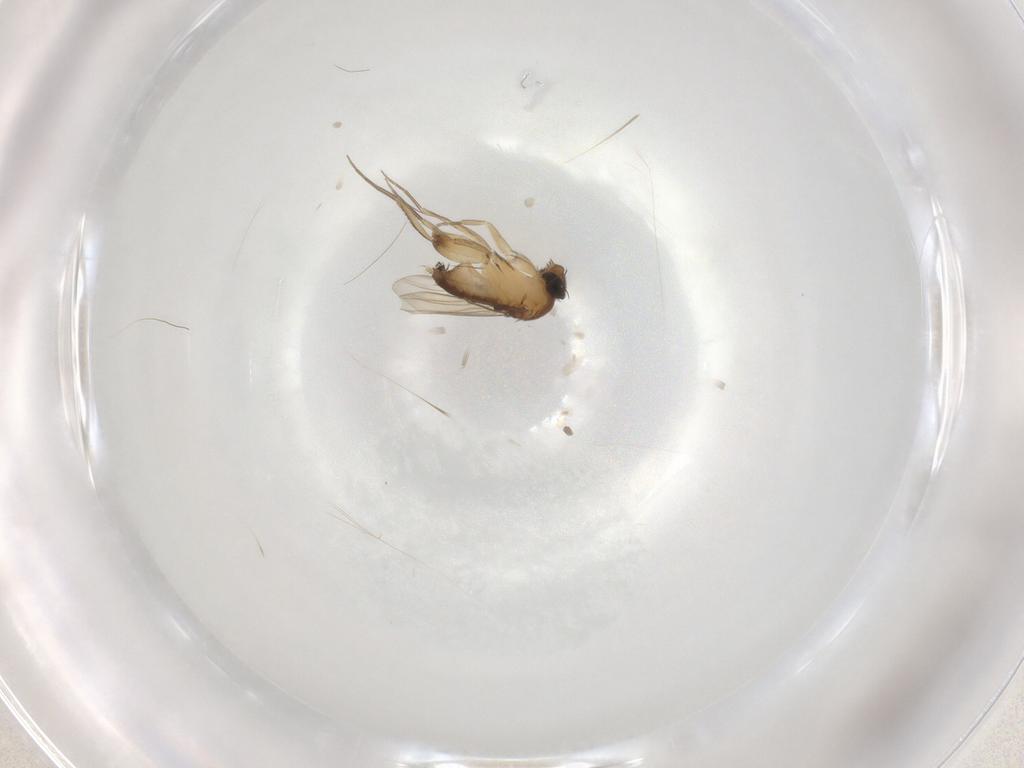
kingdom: Animalia
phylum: Arthropoda
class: Insecta
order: Diptera
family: Phoridae
